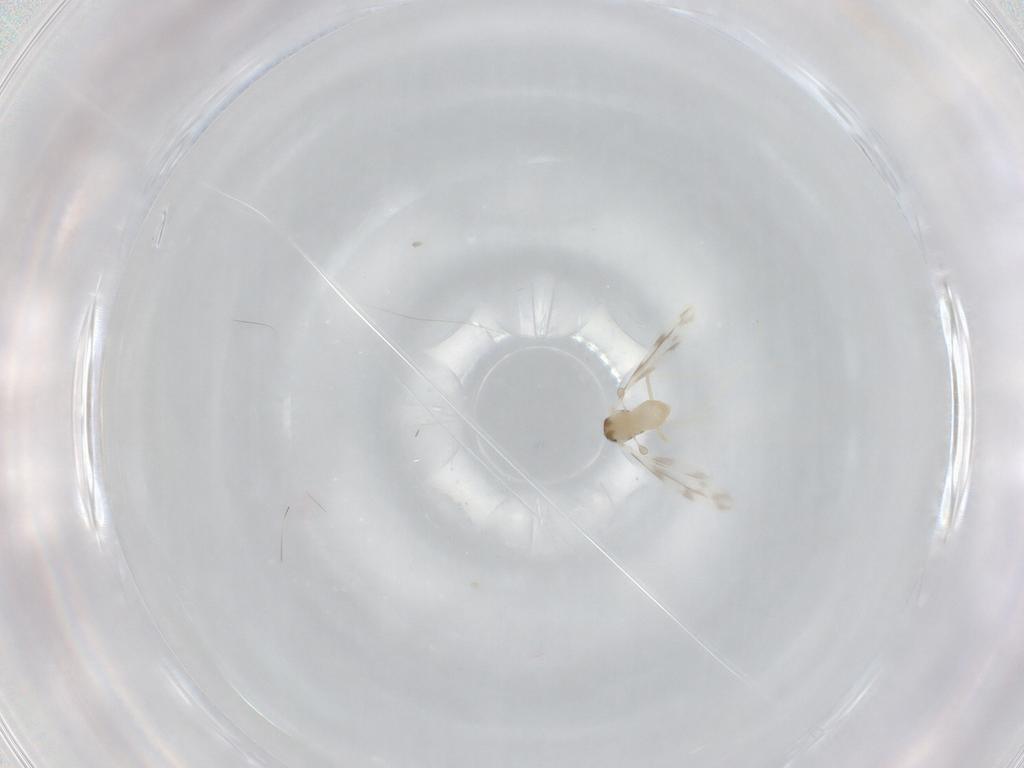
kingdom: Animalia
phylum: Arthropoda
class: Insecta
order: Diptera
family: Cecidomyiidae
